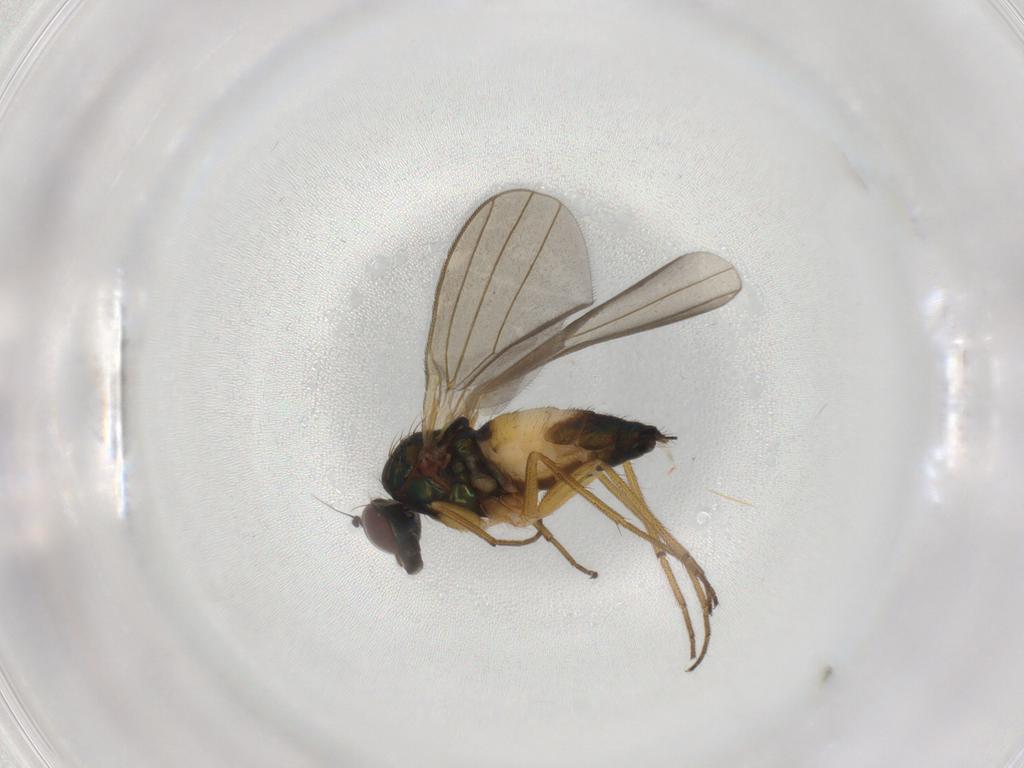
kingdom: Animalia
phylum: Arthropoda
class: Insecta
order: Diptera
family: Dolichopodidae
